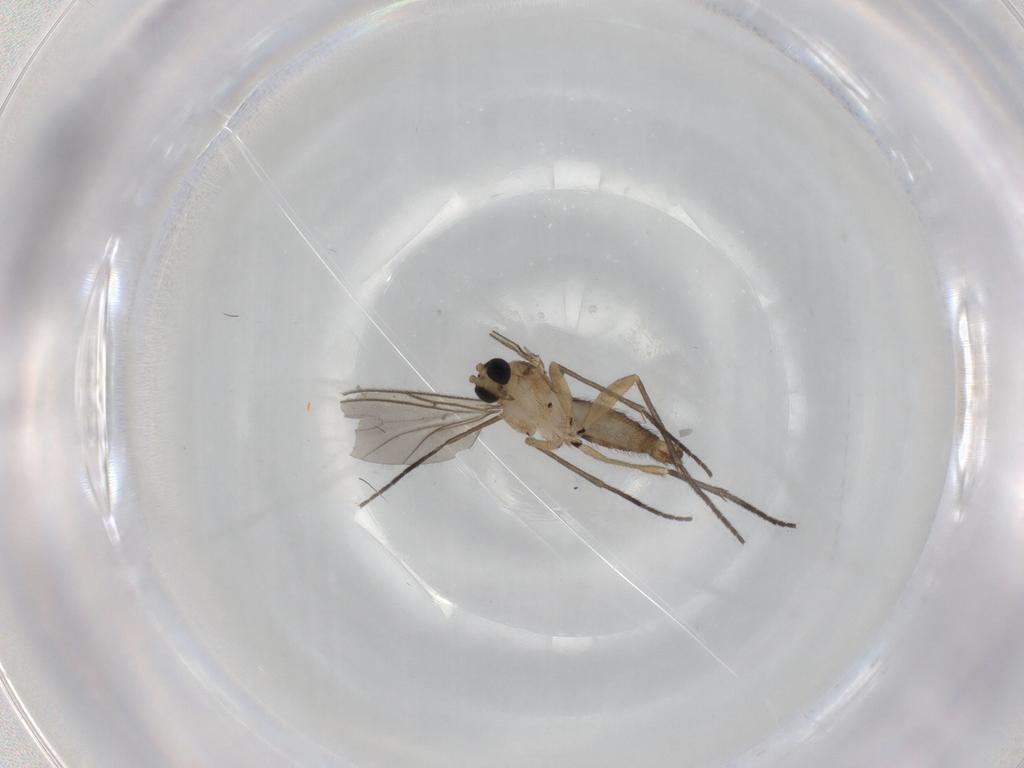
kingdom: Animalia
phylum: Arthropoda
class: Insecta
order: Diptera
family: Sciaridae
